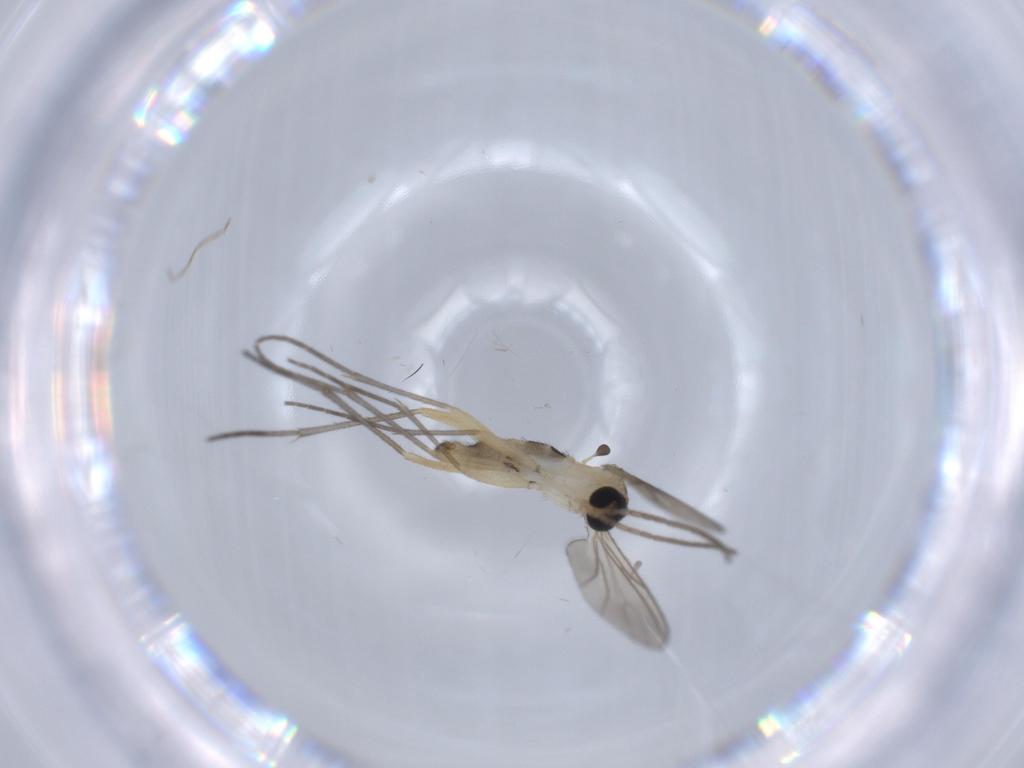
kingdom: Animalia
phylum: Arthropoda
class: Insecta
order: Diptera
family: Sciaridae
